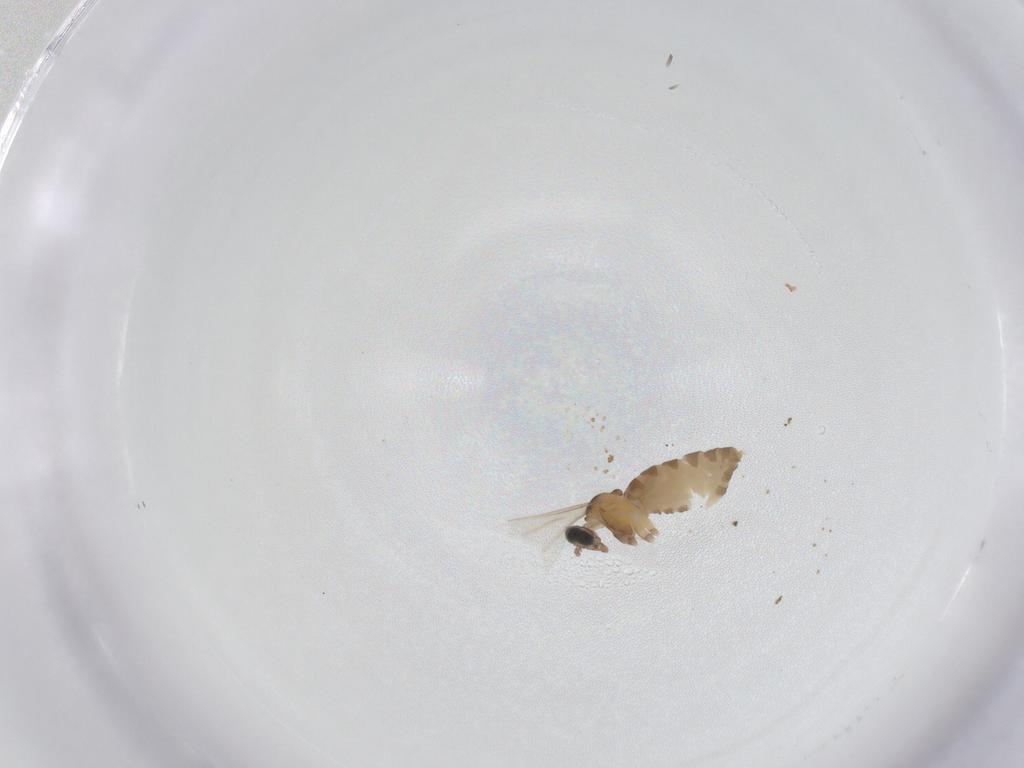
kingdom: Animalia
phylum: Arthropoda
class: Insecta
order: Diptera
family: Cecidomyiidae
